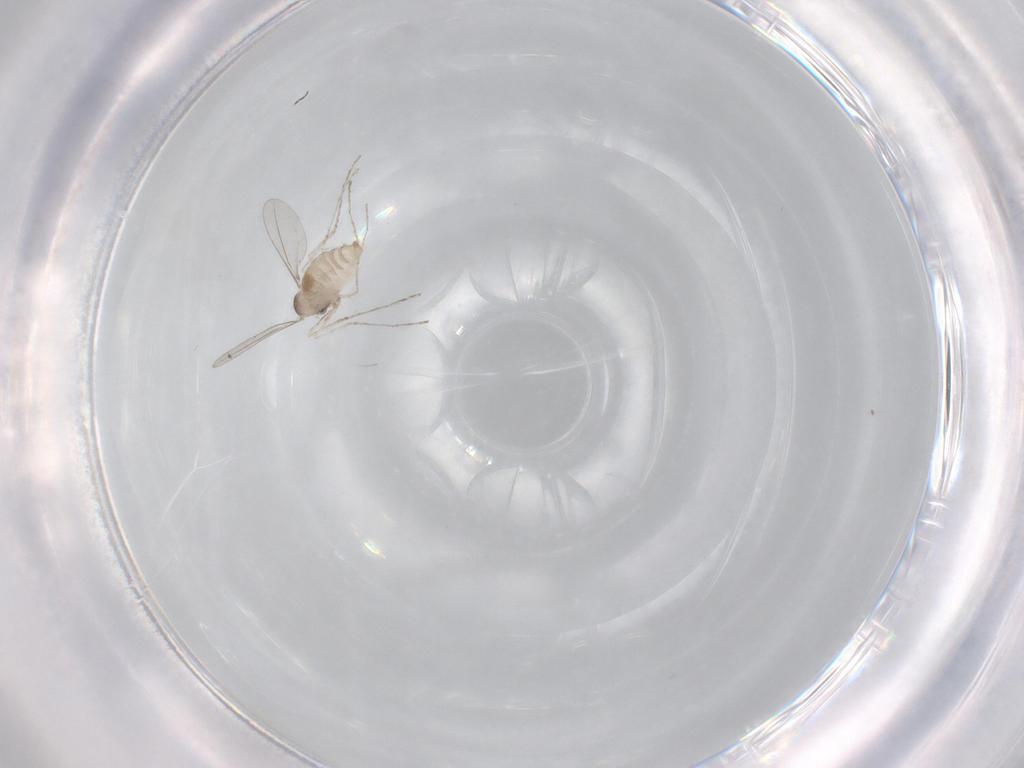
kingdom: Animalia
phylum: Arthropoda
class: Insecta
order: Diptera
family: Cecidomyiidae
